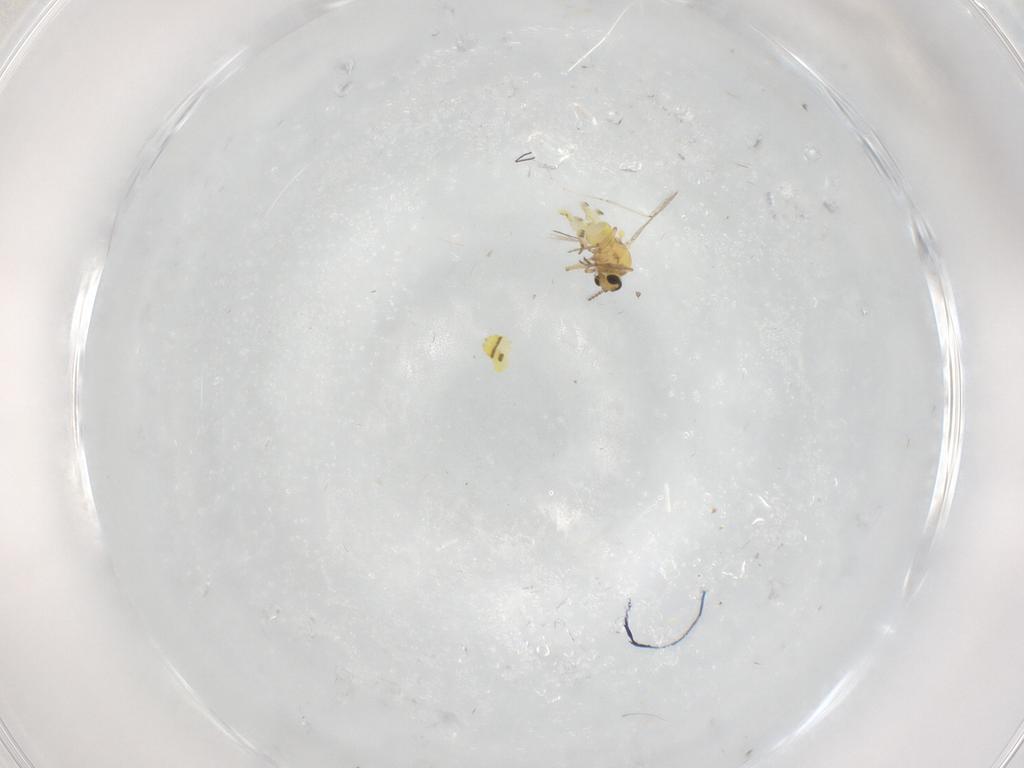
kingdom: Animalia
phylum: Arthropoda
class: Insecta
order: Diptera
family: Ceratopogonidae
